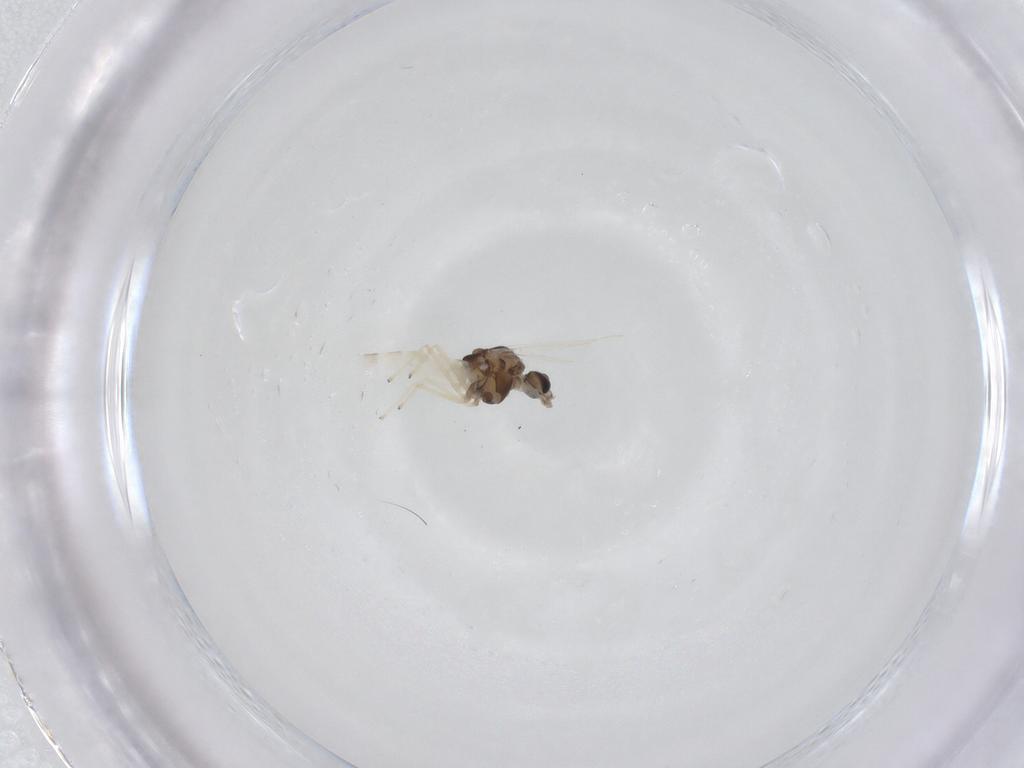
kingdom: Animalia
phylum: Arthropoda
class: Insecta
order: Diptera
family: Chironomidae
